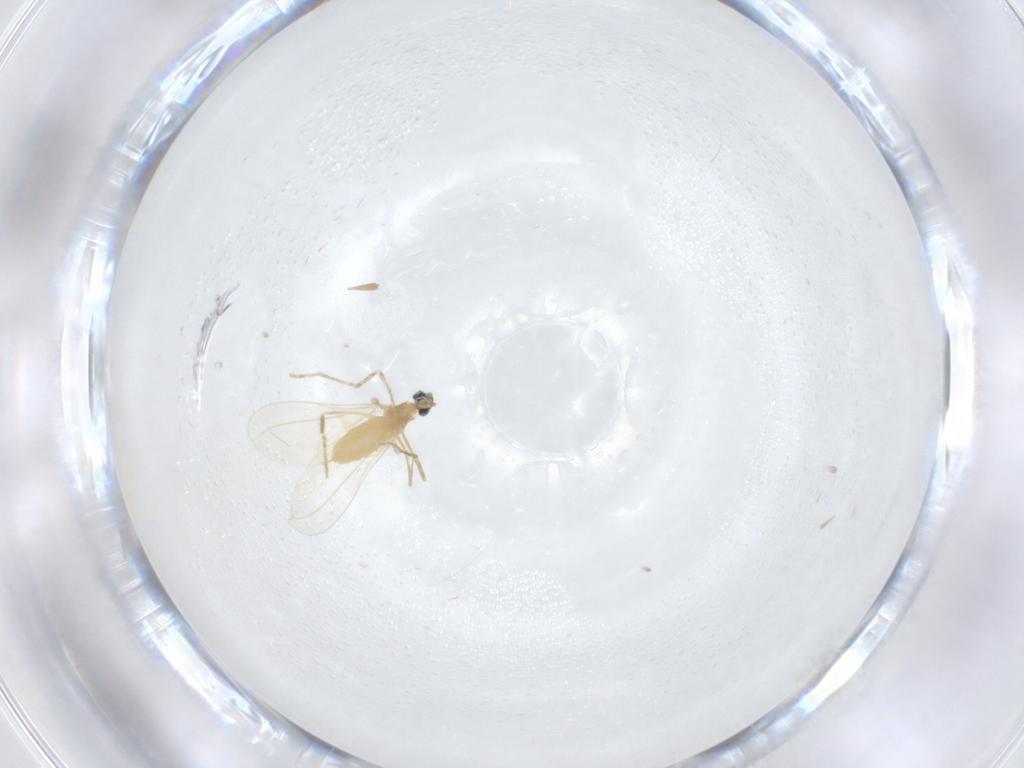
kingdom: Animalia
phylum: Arthropoda
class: Insecta
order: Diptera
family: Cecidomyiidae
